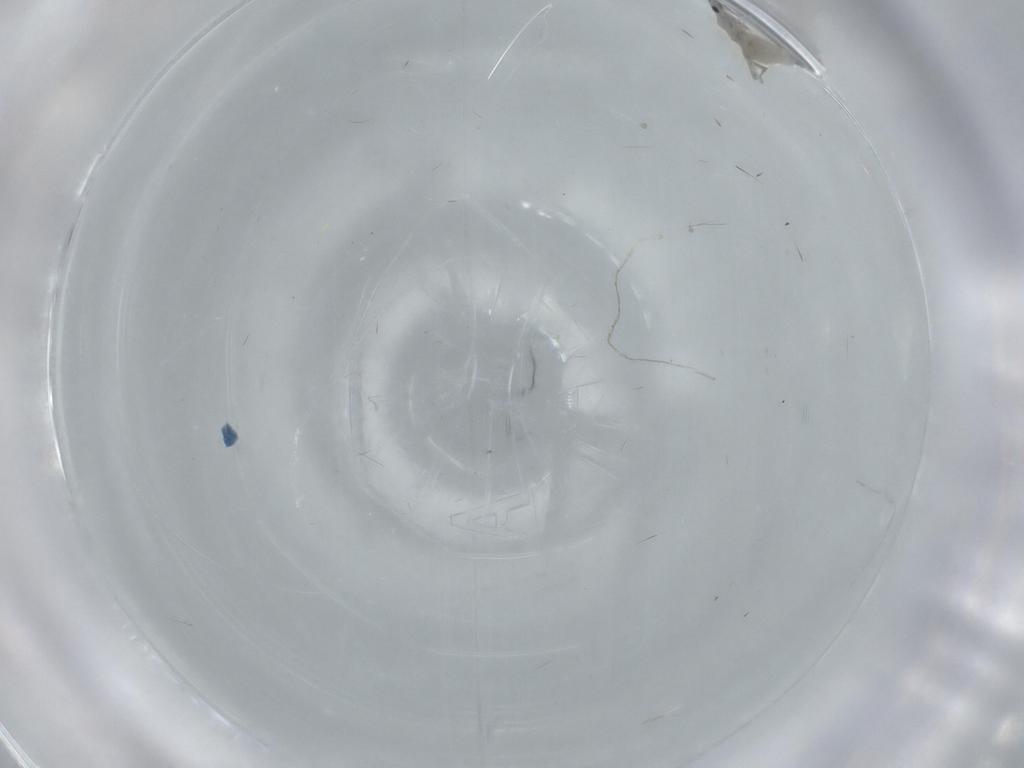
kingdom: Animalia
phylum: Arthropoda
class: Insecta
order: Diptera
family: Cecidomyiidae
